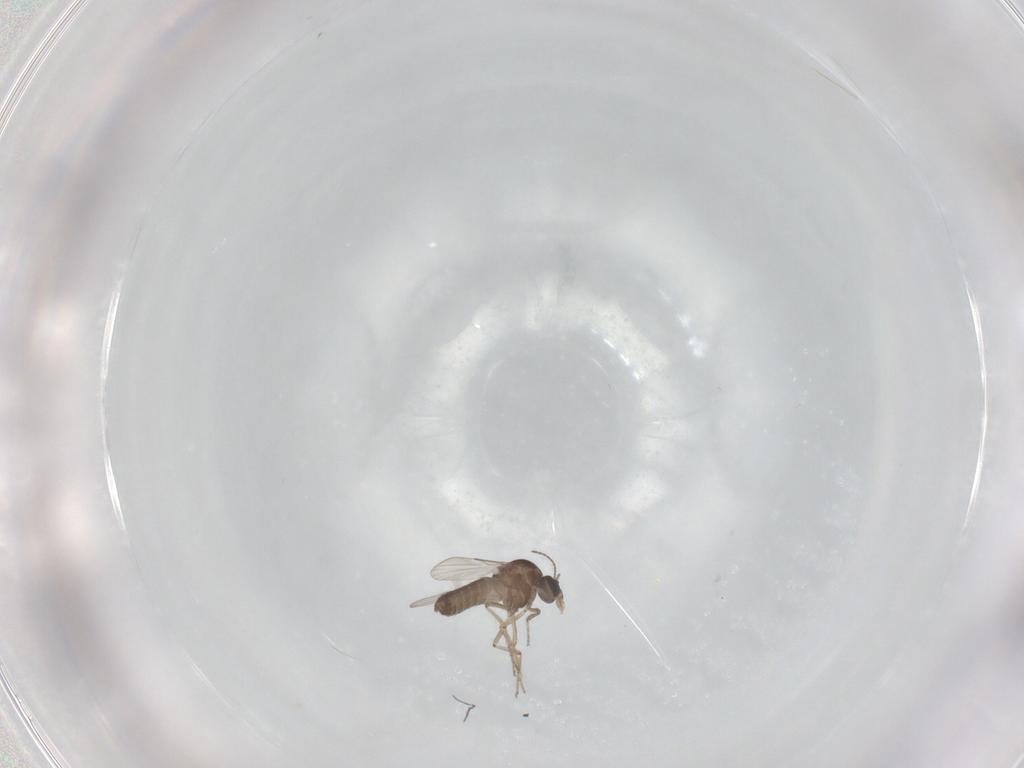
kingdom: Animalia
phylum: Arthropoda
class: Insecta
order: Diptera
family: Ceratopogonidae
